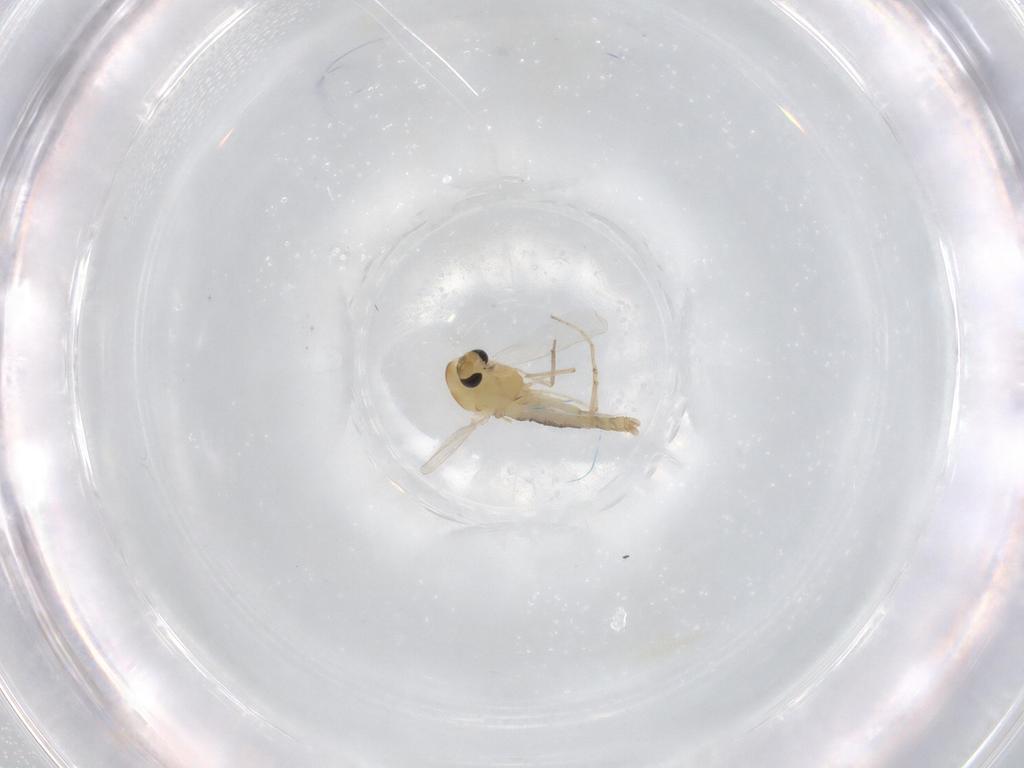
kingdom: Animalia
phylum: Arthropoda
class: Insecta
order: Diptera
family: Chironomidae
